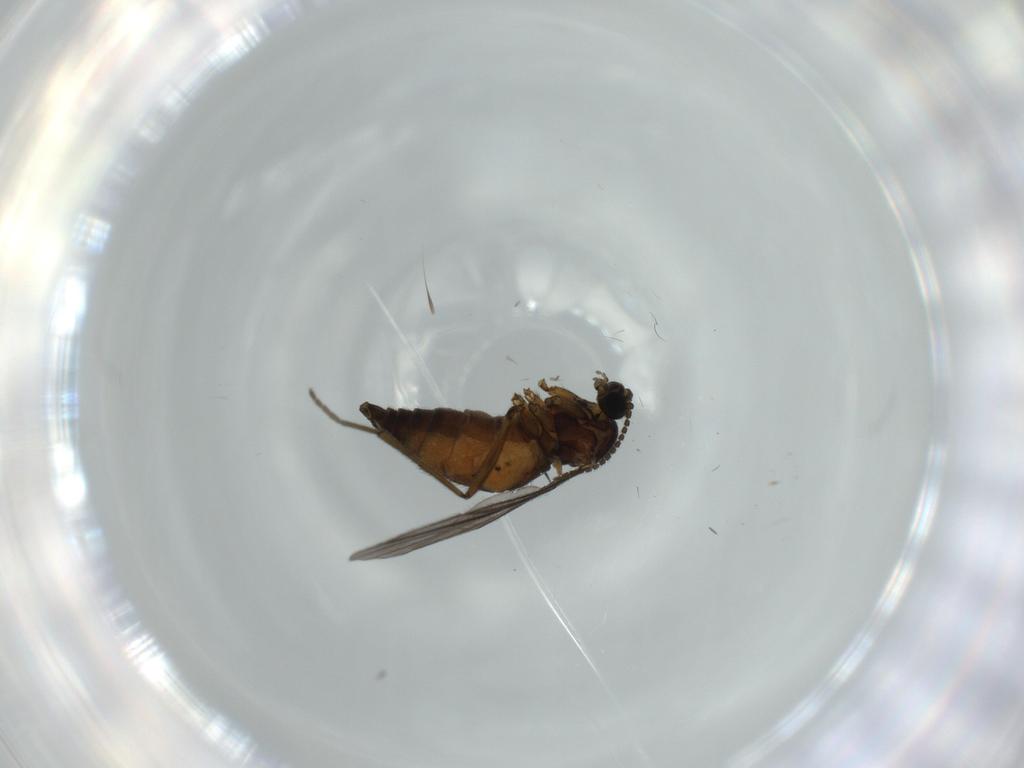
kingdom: Animalia
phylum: Arthropoda
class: Insecta
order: Diptera
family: Sciaridae
